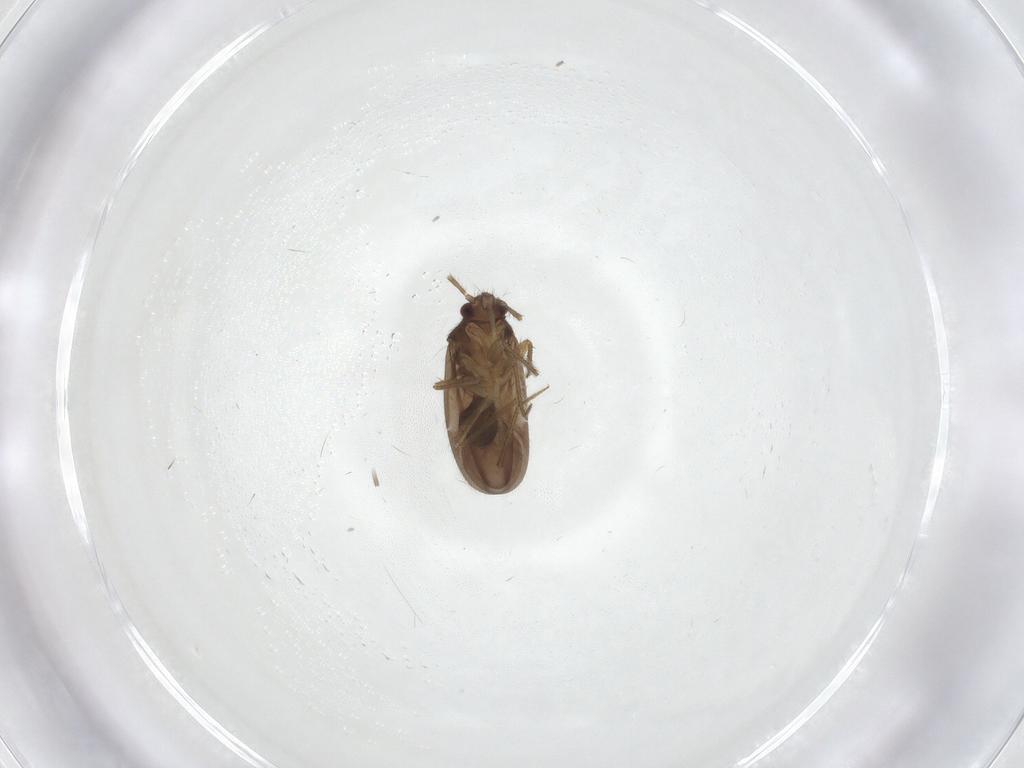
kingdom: Animalia
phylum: Arthropoda
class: Insecta
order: Hemiptera
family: Ceratocombidae
